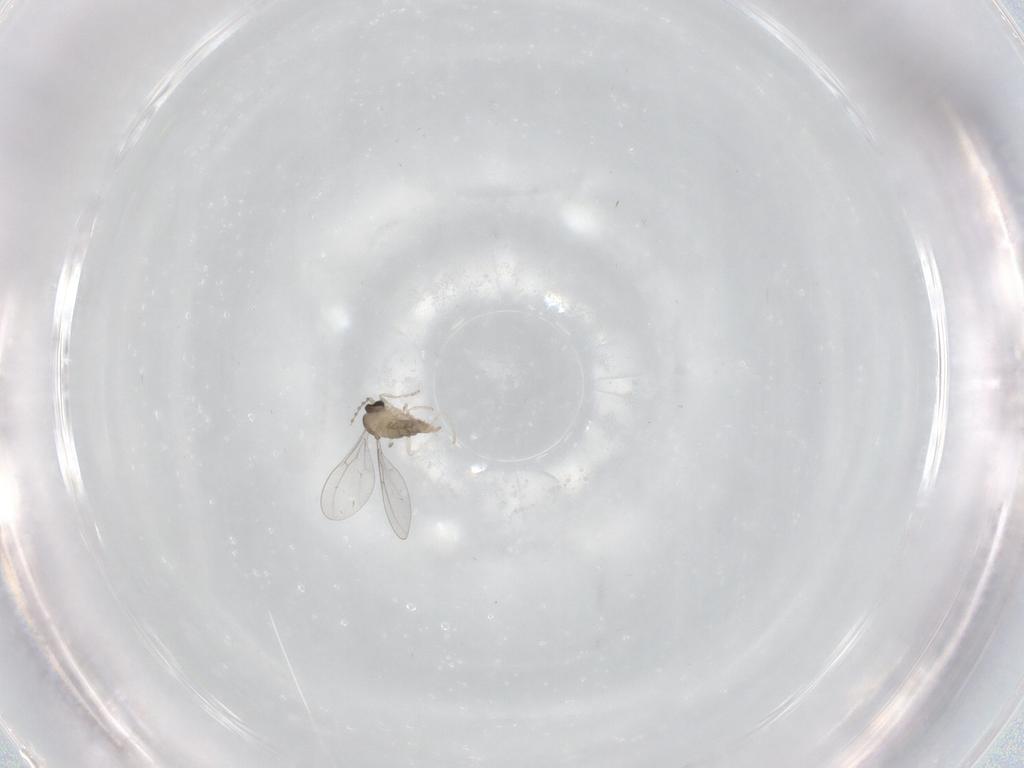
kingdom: Animalia
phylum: Arthropoda
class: Insecta
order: Diptera
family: Cecidomyiidae
